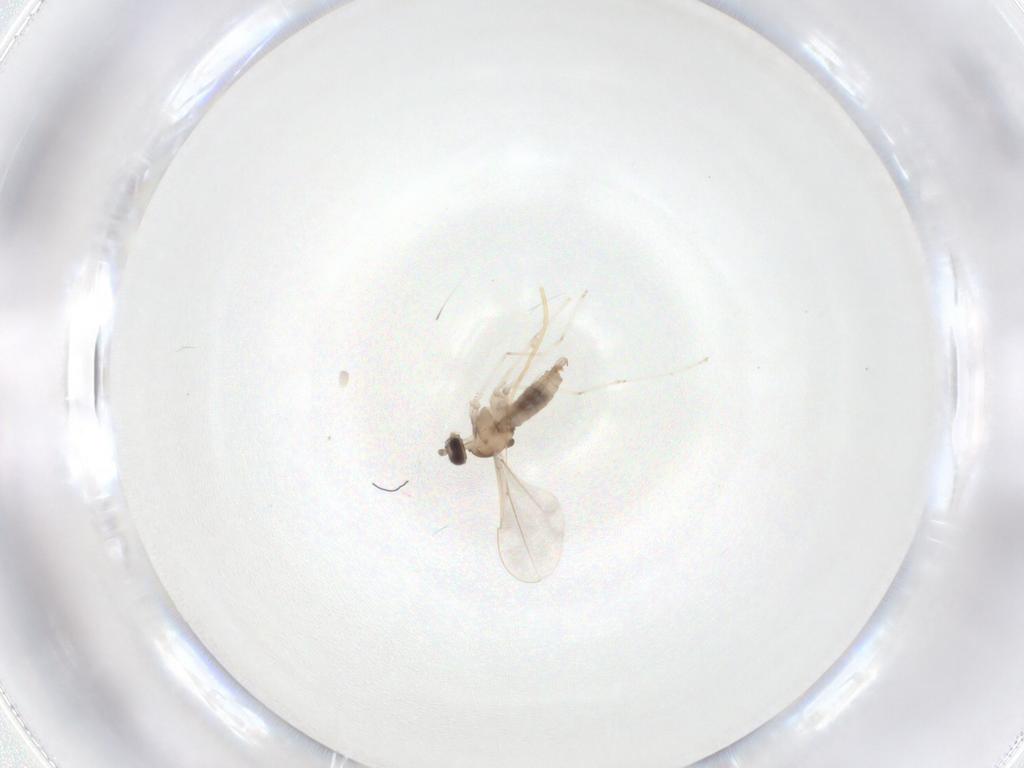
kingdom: Animalia
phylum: Arthropoda
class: Insecta
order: Diptera
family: Cecidomyiidae
